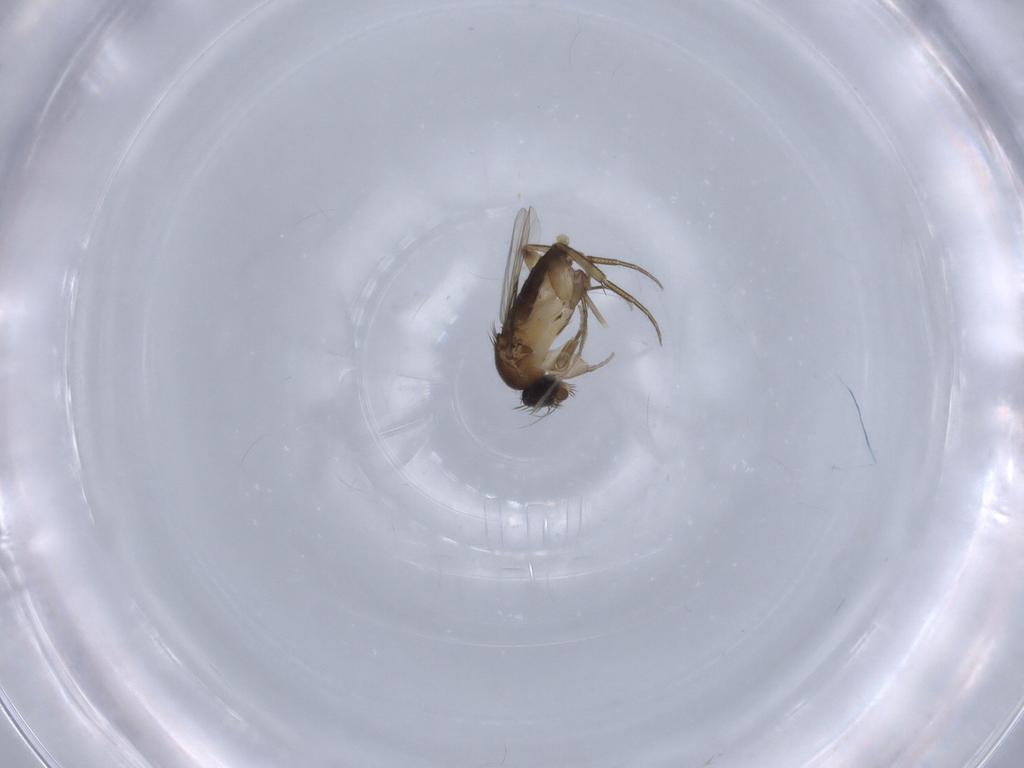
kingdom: Animalia
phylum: Arthropoda
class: Insecta
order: Diptera
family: Phoridae
